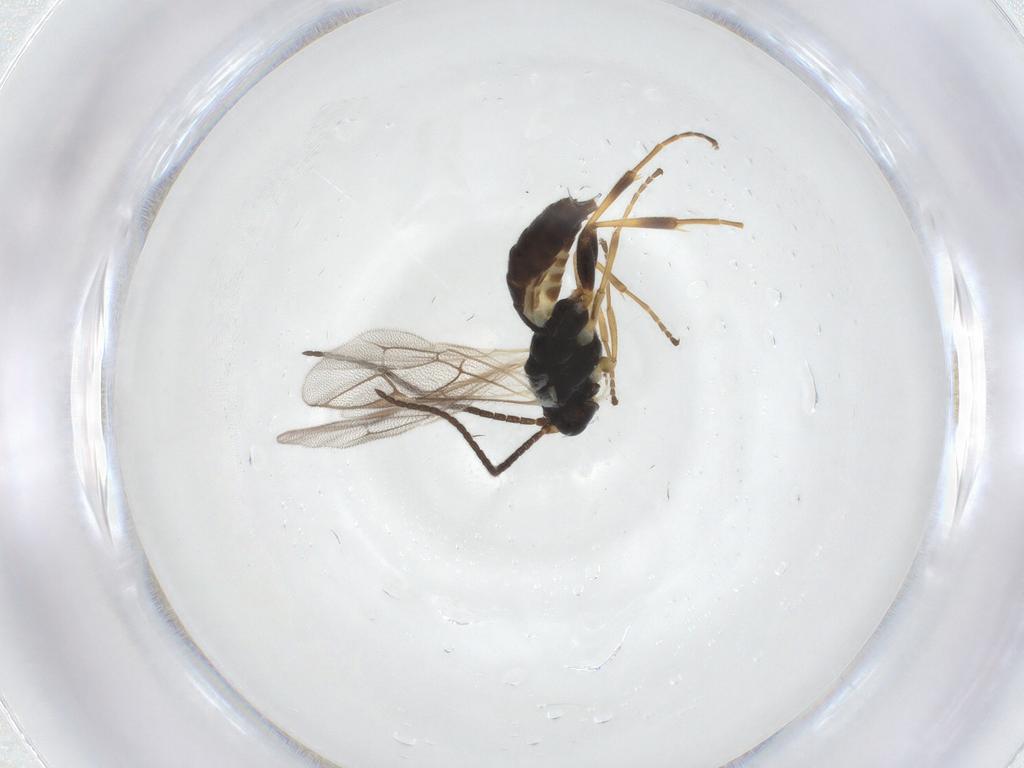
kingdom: Animalia
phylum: Arthropoda
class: Insecta
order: Hymenoptera
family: Ichneumonidae
